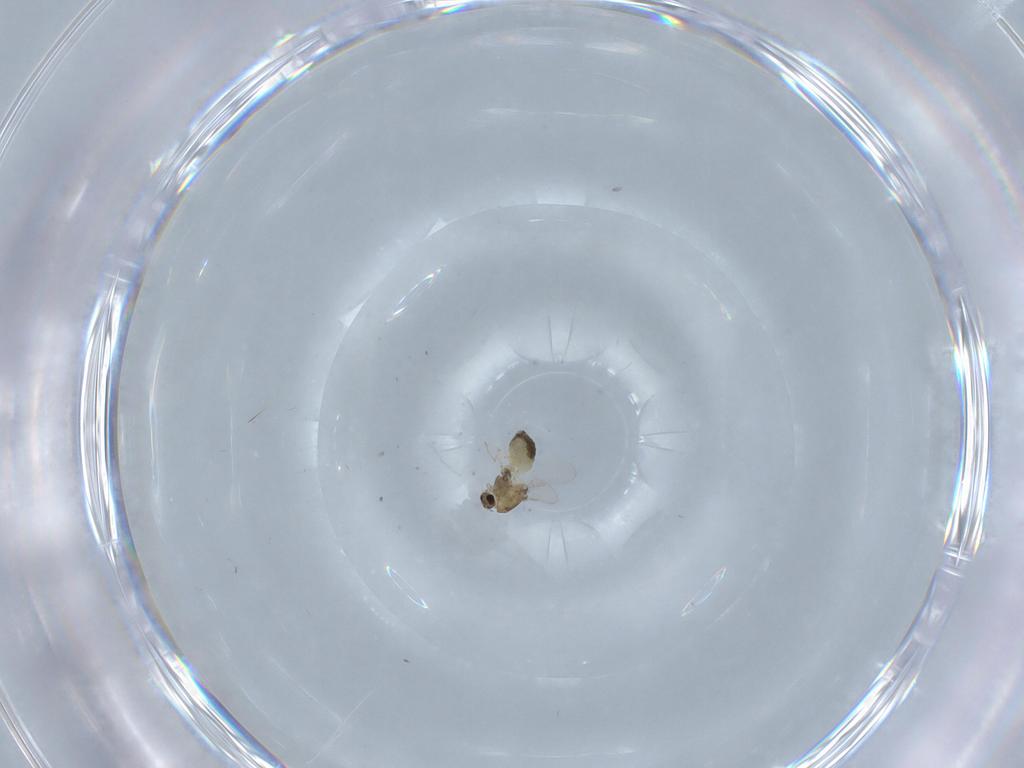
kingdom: Animalia
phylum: Arthropoda
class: Insecta
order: Diptera
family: Chironomidae
